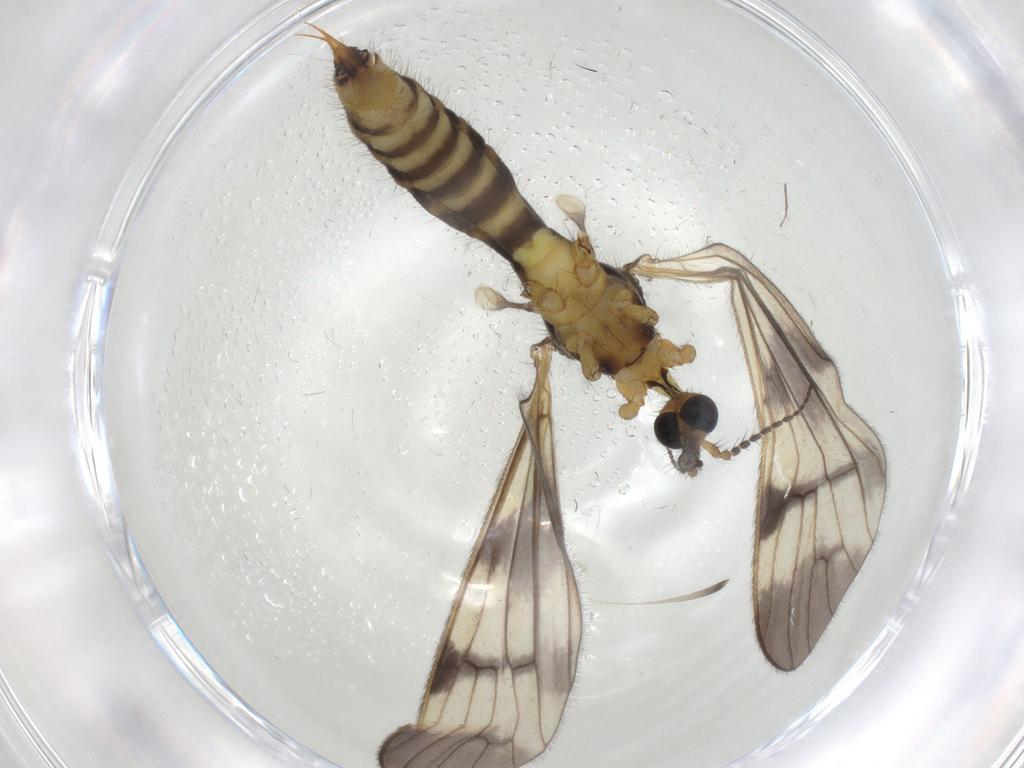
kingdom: Animalia
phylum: Arthropoda
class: Insecta
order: Diptera
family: Limoniidae
